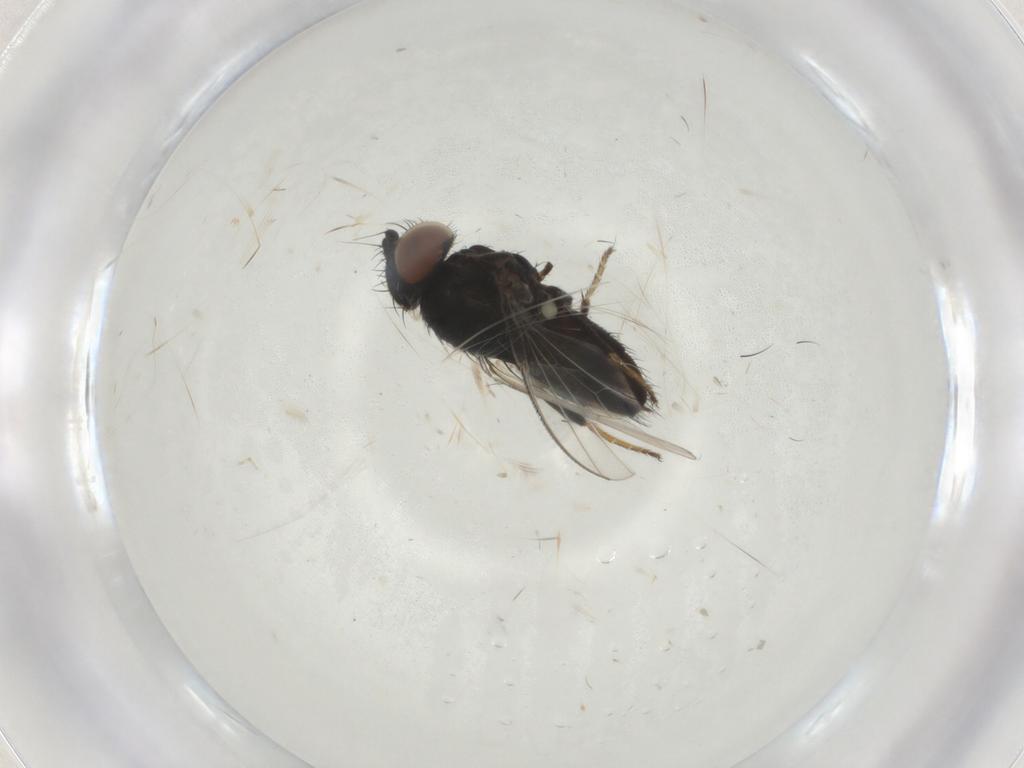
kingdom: Animalia
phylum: Arthropoda
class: Insecta
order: Diptera
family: Milichiidae
